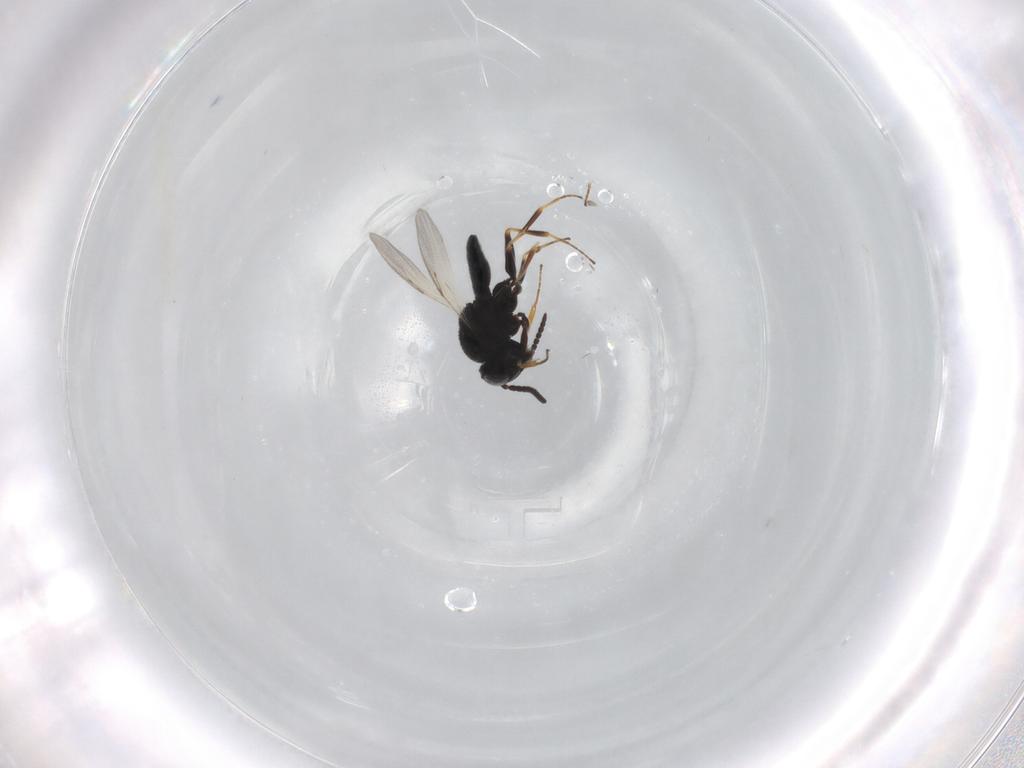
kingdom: Animalia
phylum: Arthropoda
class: Insecta
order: Hymenoptera
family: Scelionidae
